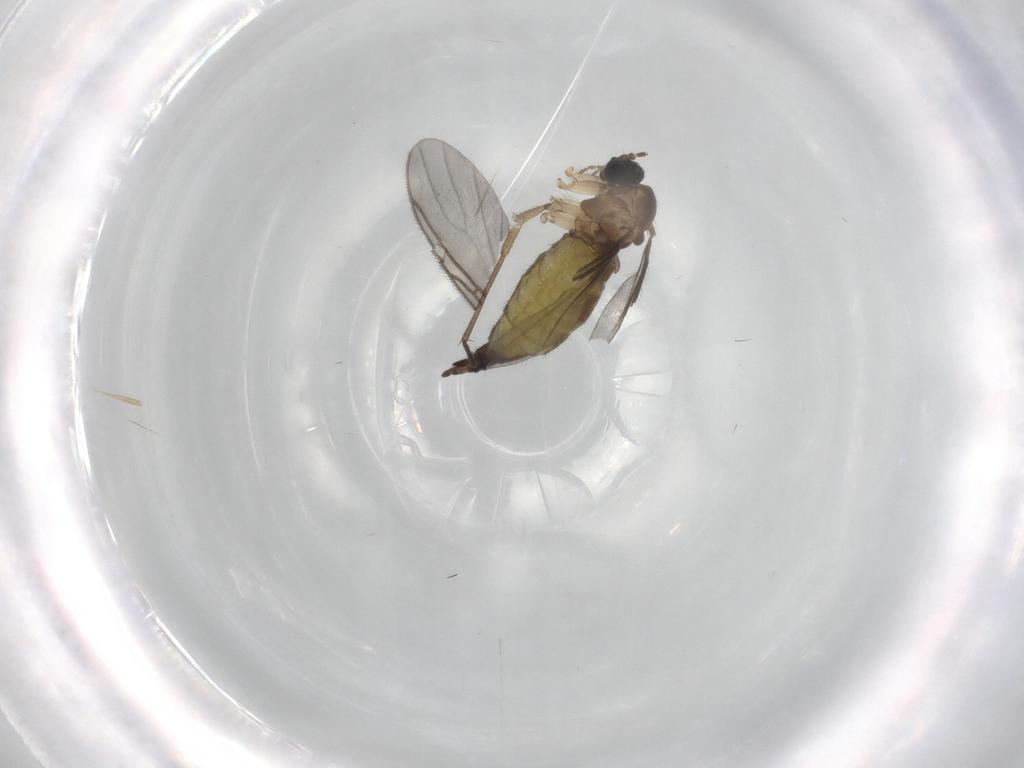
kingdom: Animalia
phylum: Arthropoda
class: Insecta
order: Diptera
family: Sciaridae
